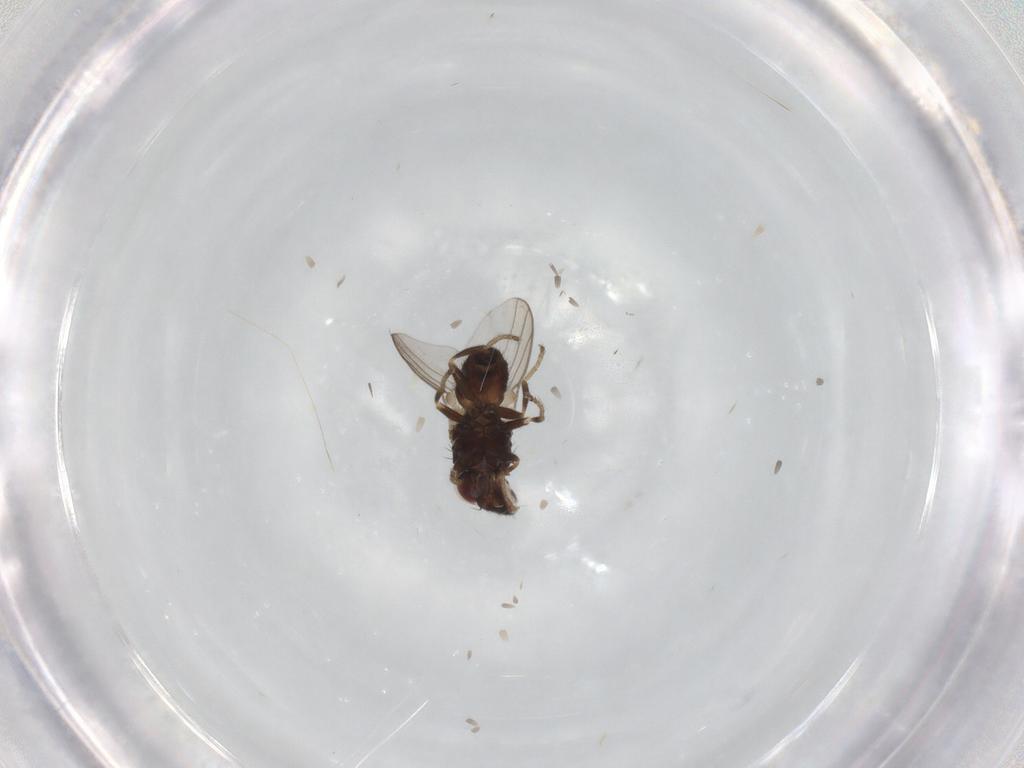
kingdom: Animalia
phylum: Arthropoda
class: Insecta
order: Diptera
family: Chloropidae
